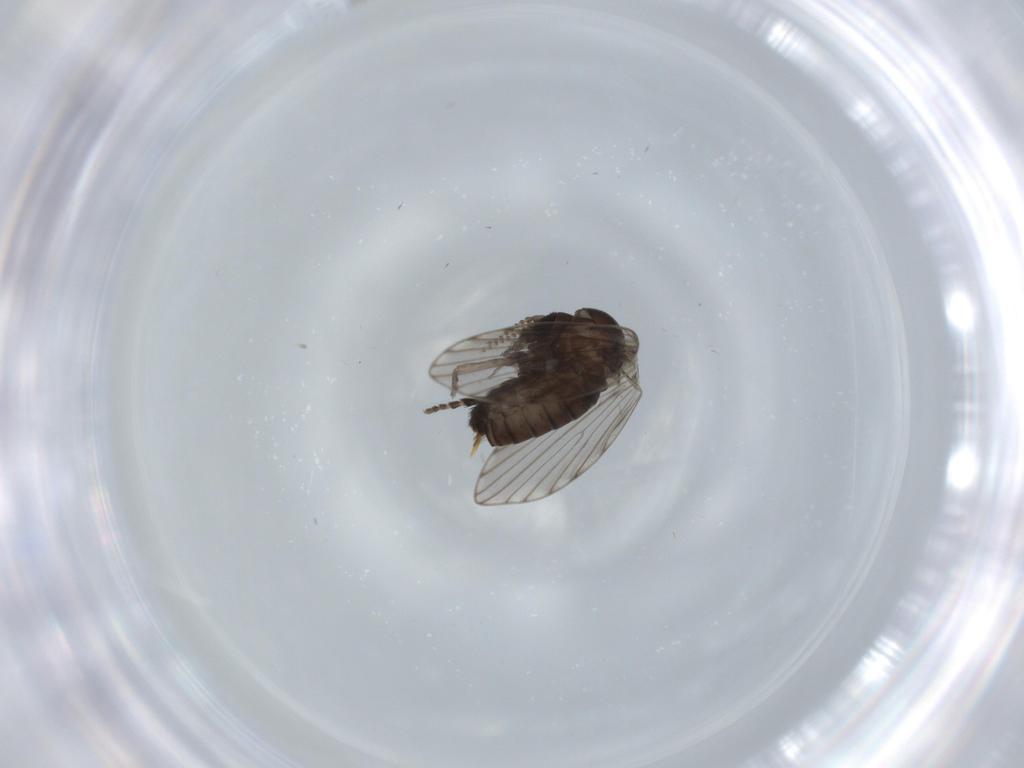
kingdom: Animalia
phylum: Arthropoda
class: Insecta
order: Diptera
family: Psychodidae
